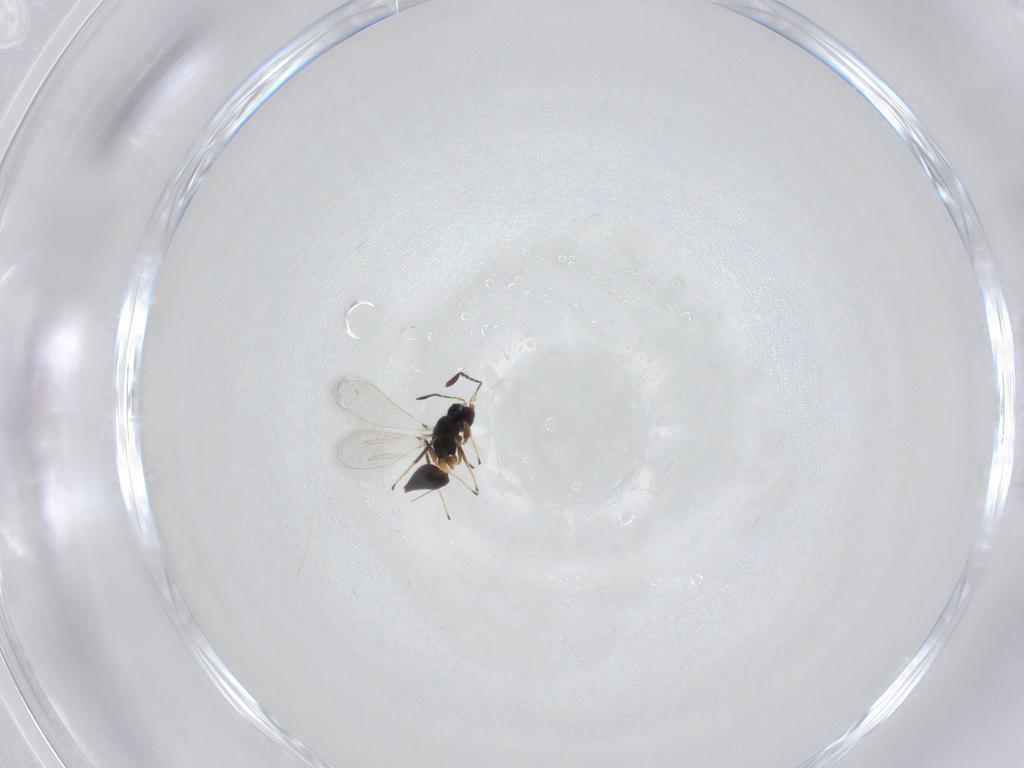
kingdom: Animalia
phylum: Arthropoda
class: Insecta
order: Hymenoptera
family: Mymaridae
